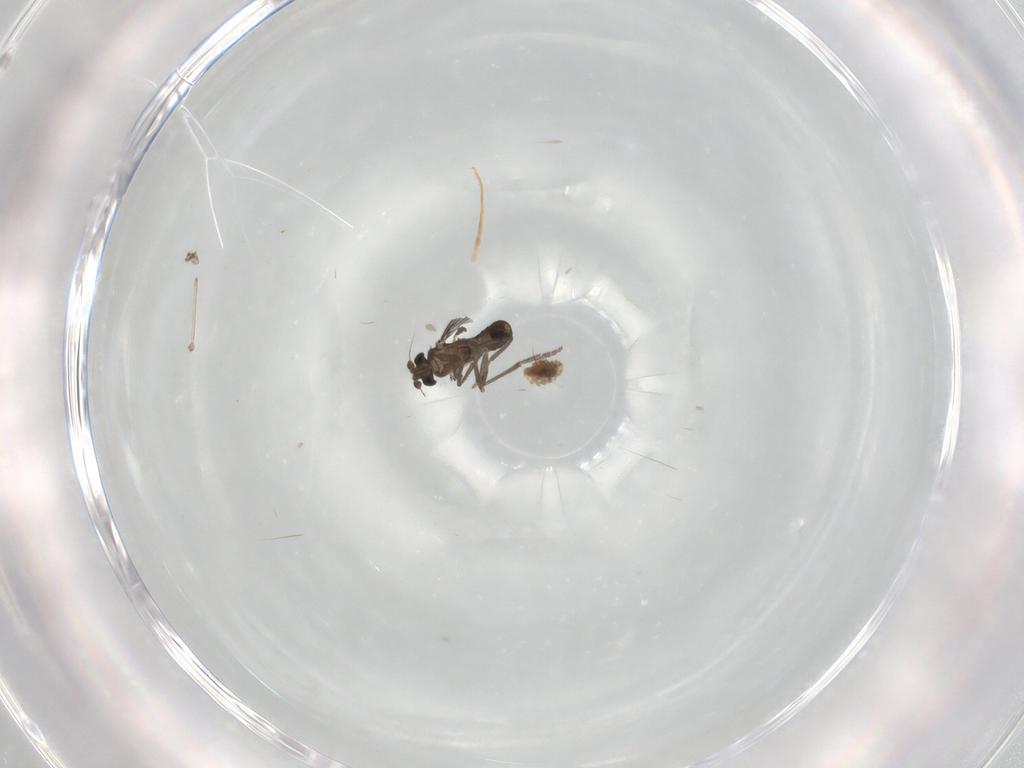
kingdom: Animalia
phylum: Arthropoda
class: Insecta
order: Diptera
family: Phoridae
